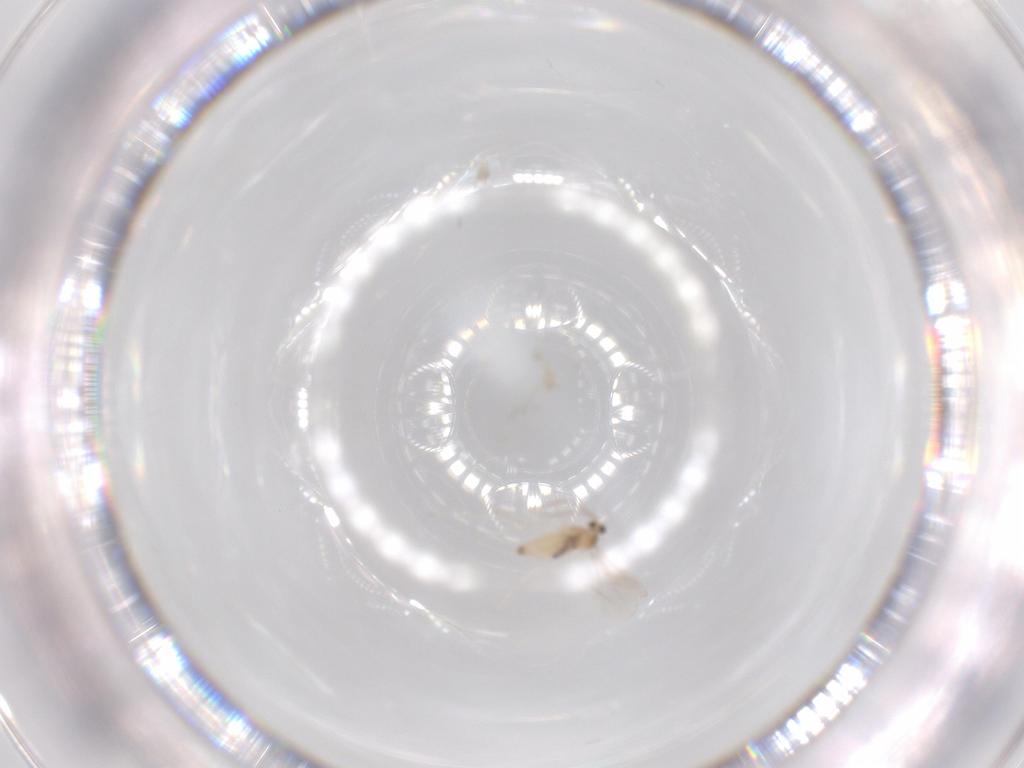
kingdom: Animalia
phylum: Arthropoda
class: Insecta
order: Diptera
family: Cecidomyiidae
